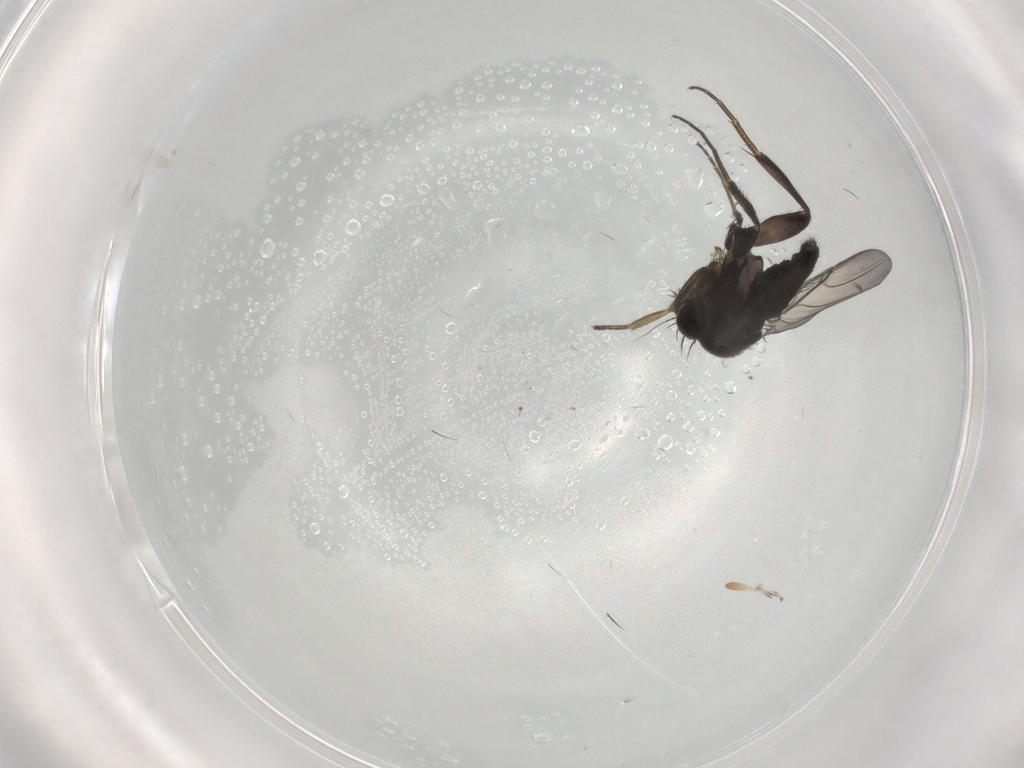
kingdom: Animalia
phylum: Arthropoda
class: Insecta
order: Diptera
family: Phoridae
